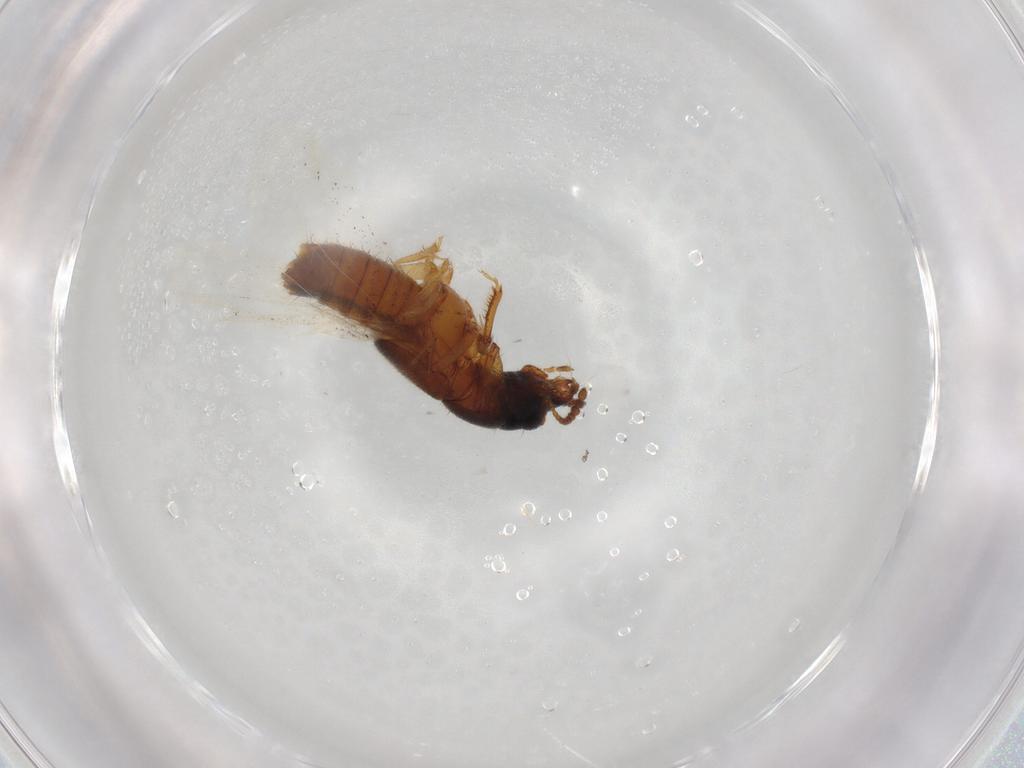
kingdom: Animalia
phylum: Arthropoda
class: Insecta
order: Coleoptera
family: Staphylinidae
